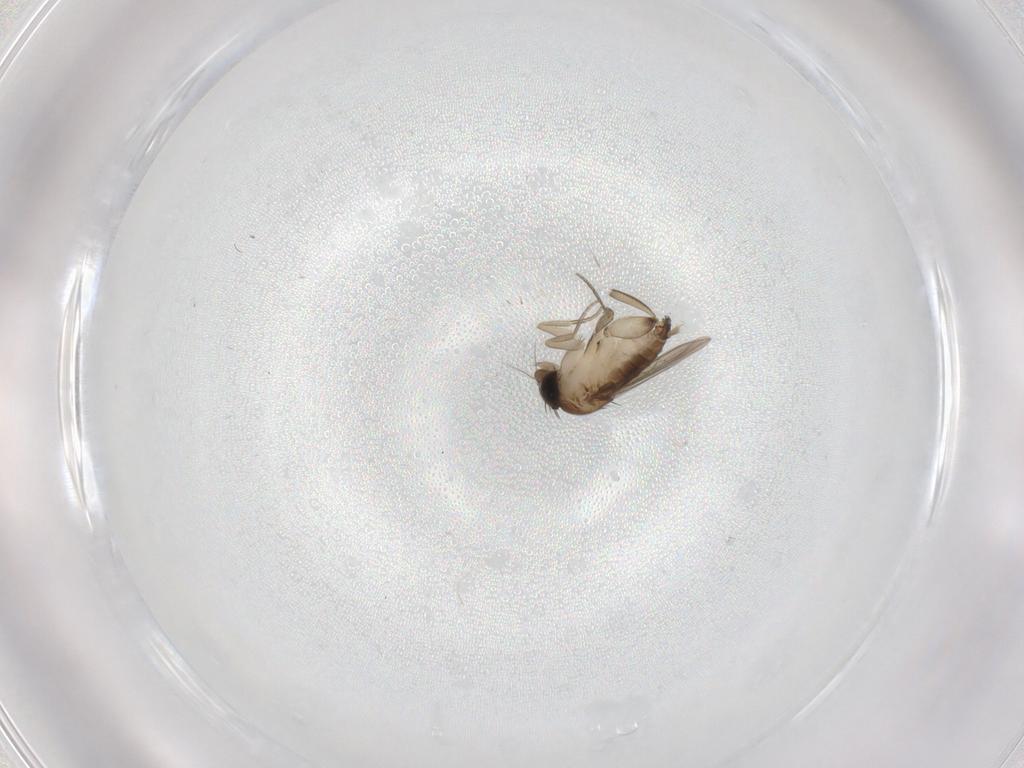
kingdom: Animalia
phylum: Arthropoda
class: Insecta
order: Diptera
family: Phoridae
